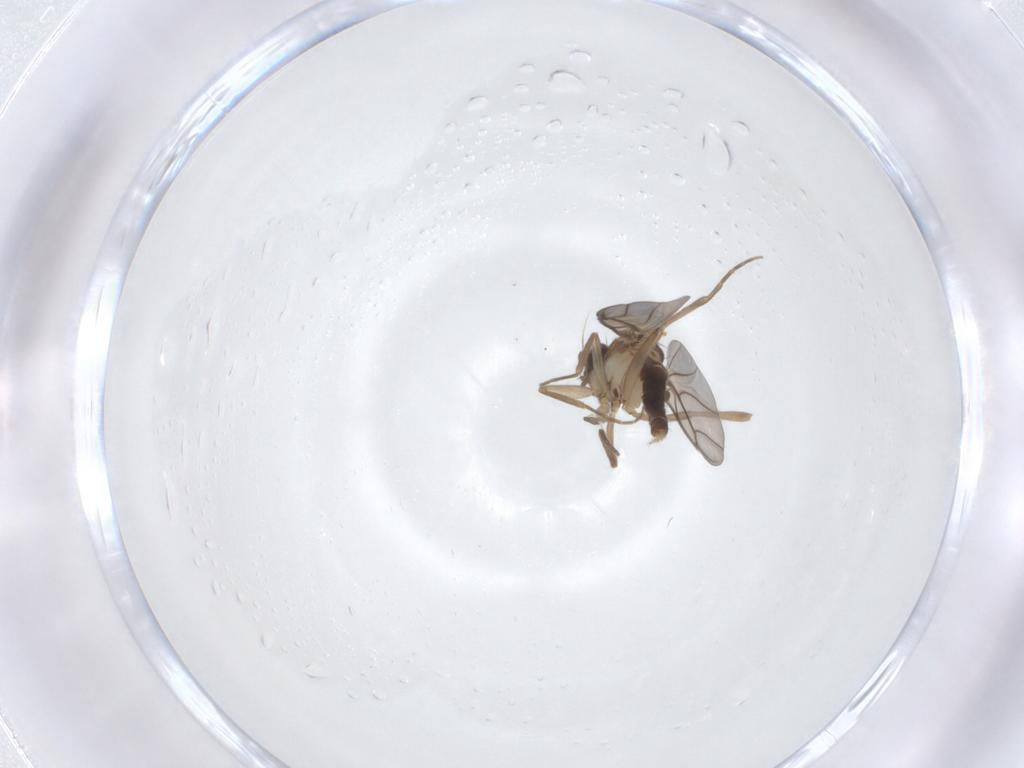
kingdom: Animalia
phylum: Arthropoda
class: Insecta
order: Diptera
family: Phoridae
